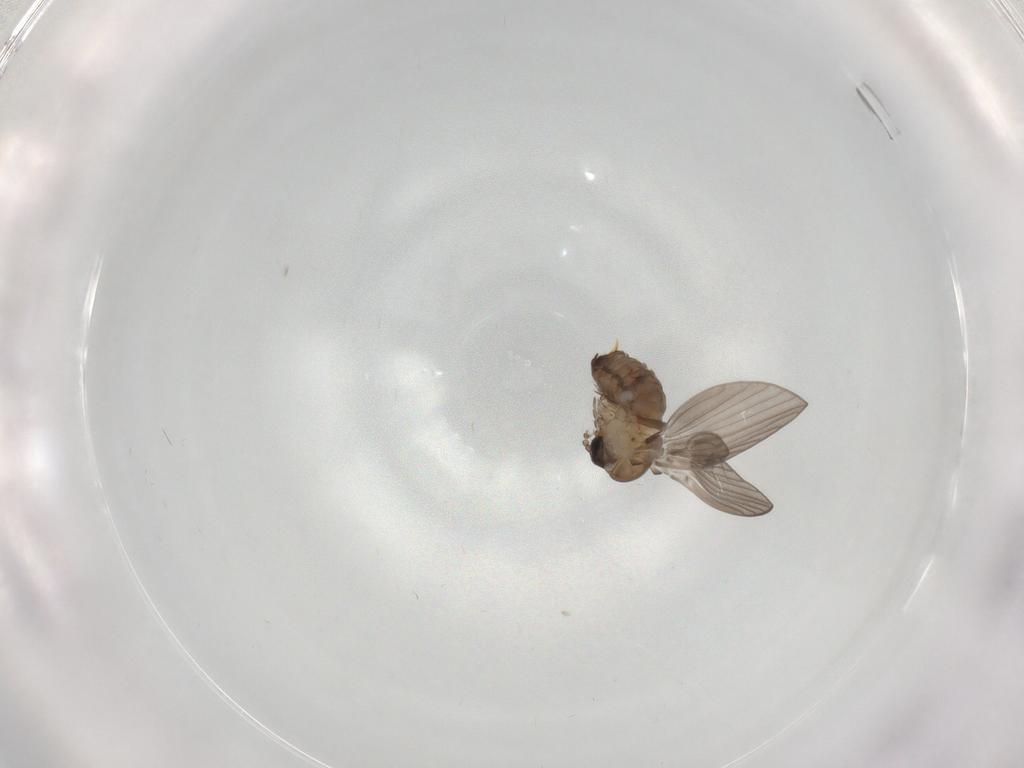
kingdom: Animalia
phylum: Arthropoda
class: Insecta
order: Diptera
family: Psychodidae
